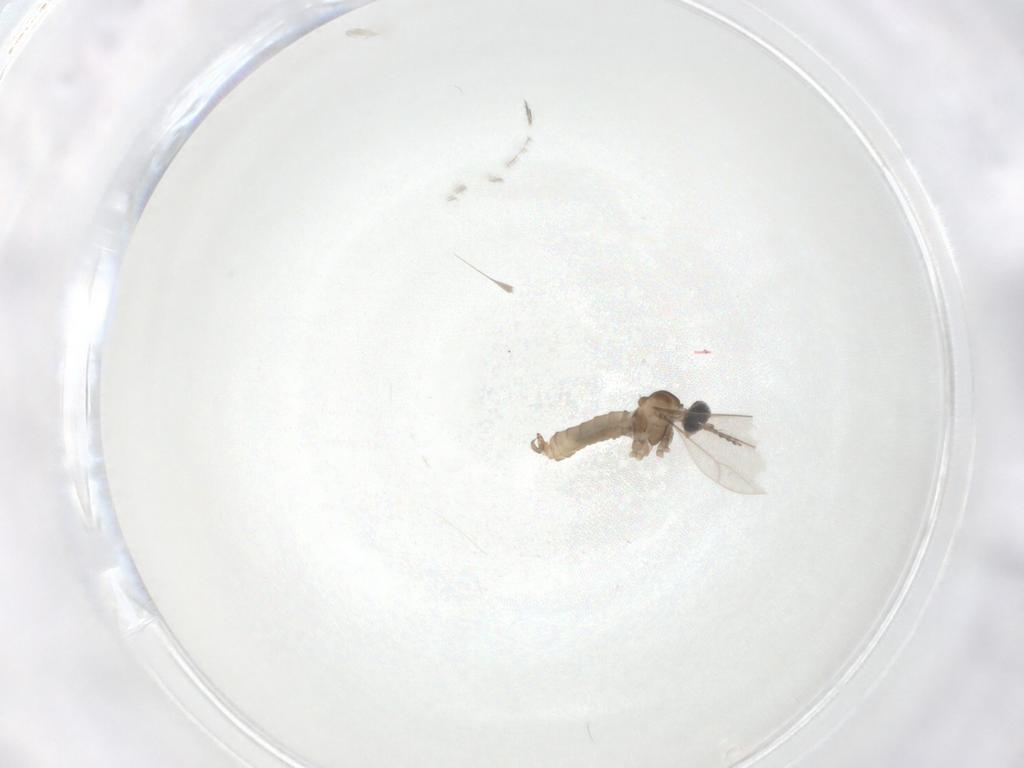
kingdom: Animalia
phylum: Arthropoda
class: Insecta
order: Diptera
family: Cecidomyiidae
